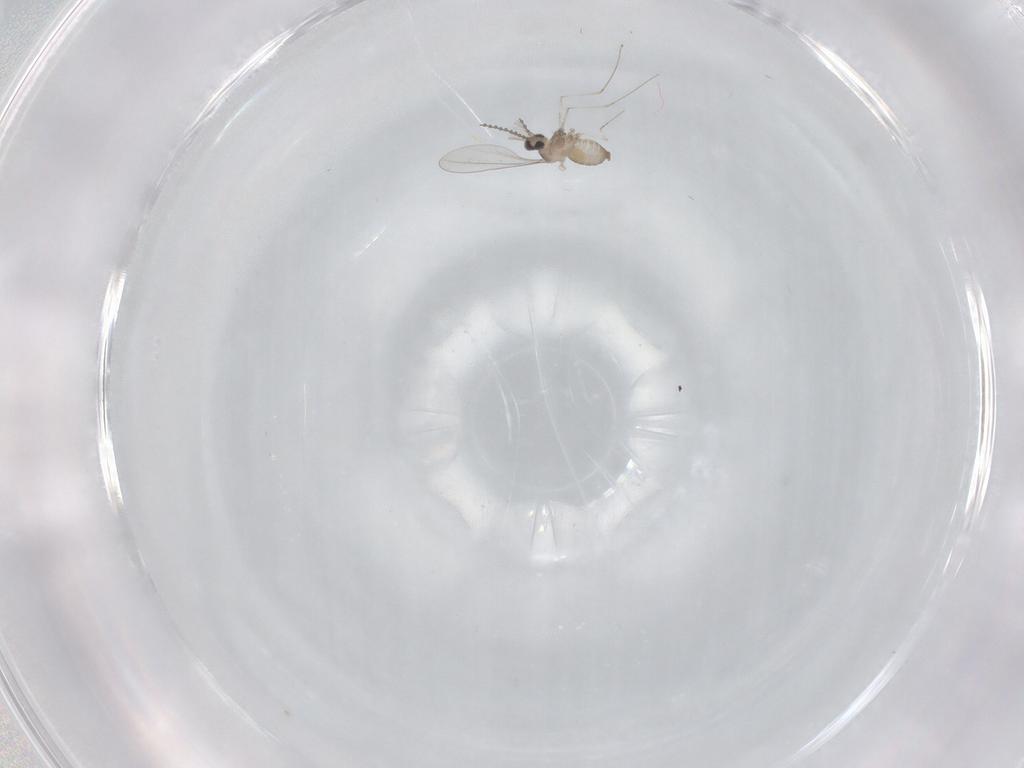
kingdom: Animalia
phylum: Arthropoda
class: Insecta
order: Diptera
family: Cecidomyiidae
